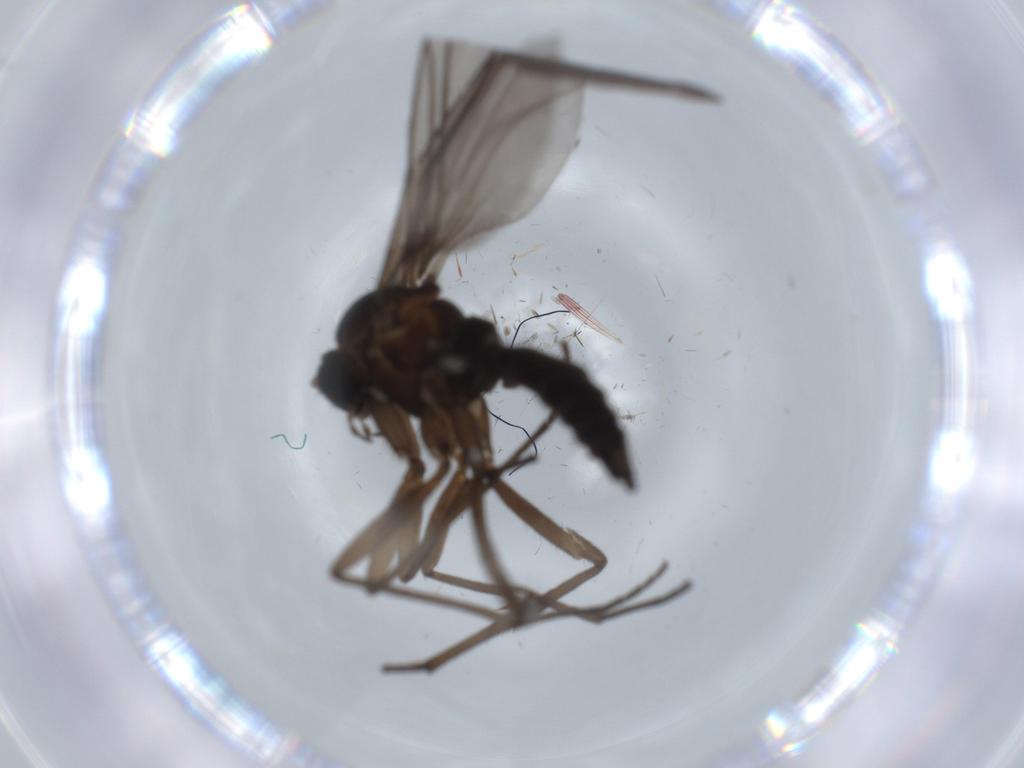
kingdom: Animalia
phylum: Arthropoda
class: Insecta
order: Diptera
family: Sciaridae
